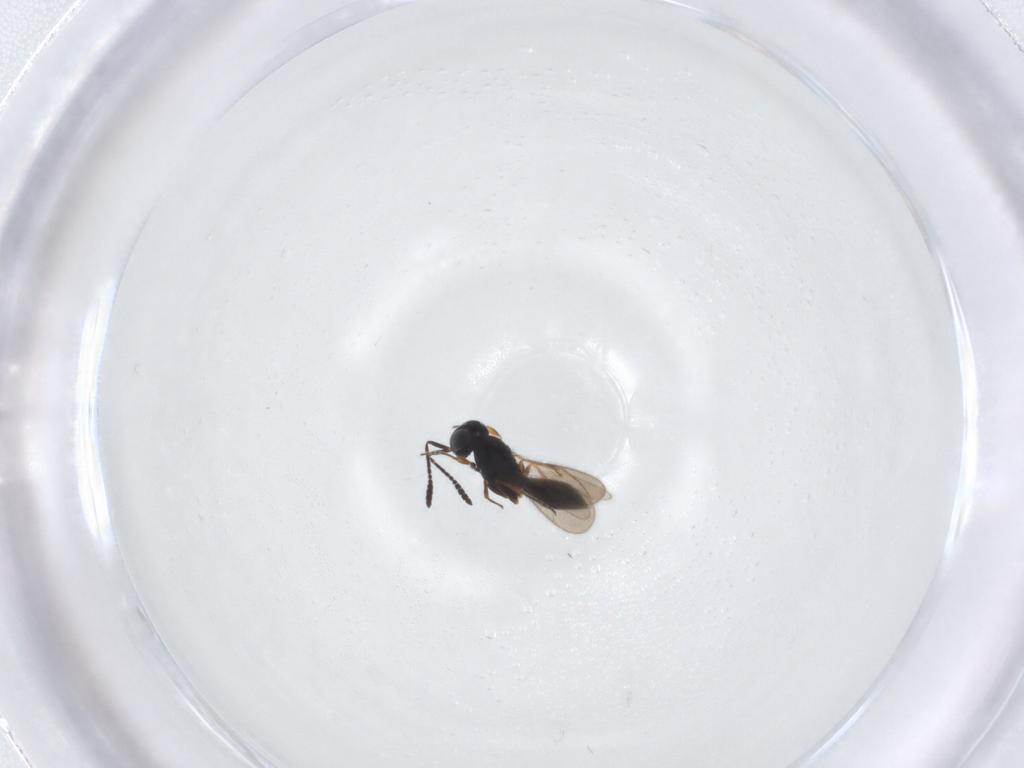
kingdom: Animalia
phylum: Arthropoda
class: Insecta
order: Hymenoptera
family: Scelionidae
